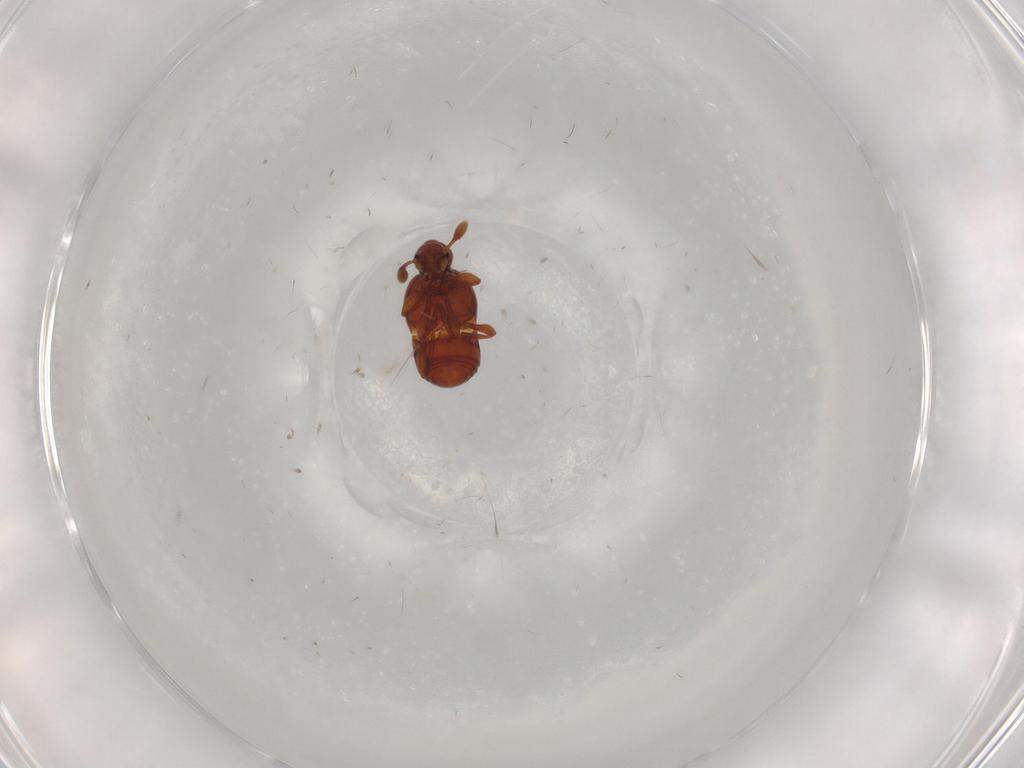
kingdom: Animalia
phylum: Arthropoda
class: Insecta
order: Coleoptera
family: Staphylinidae
